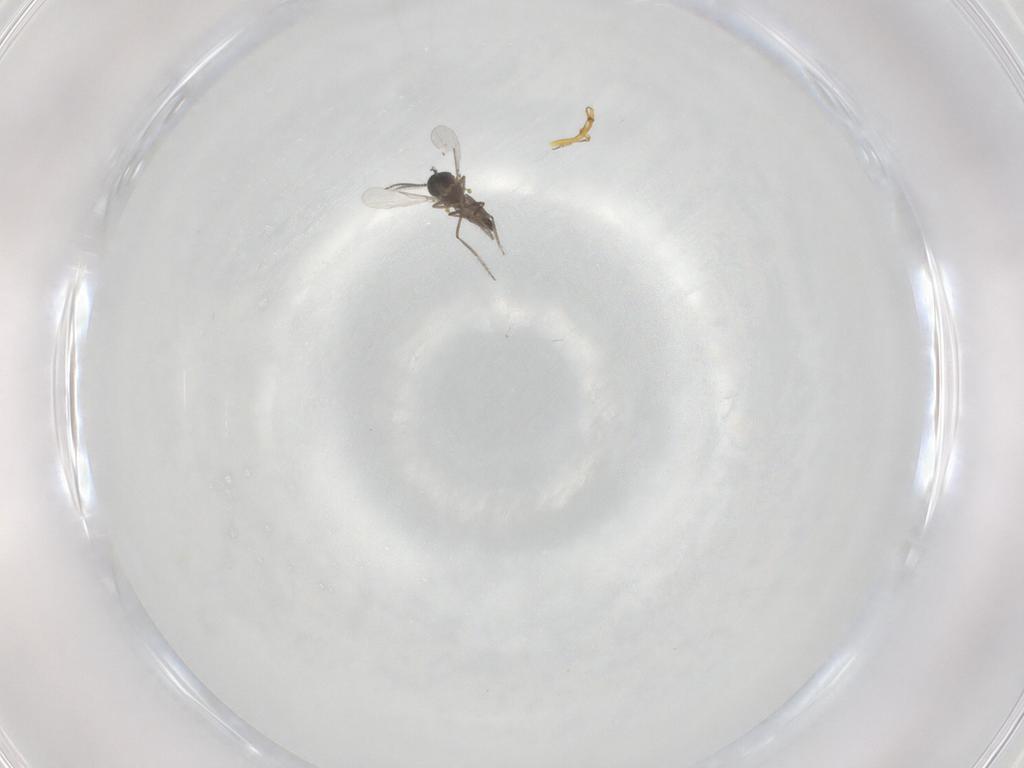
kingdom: Animalia
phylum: Arthropoda
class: Insecta
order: Diptera
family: Ceratopogonidae
